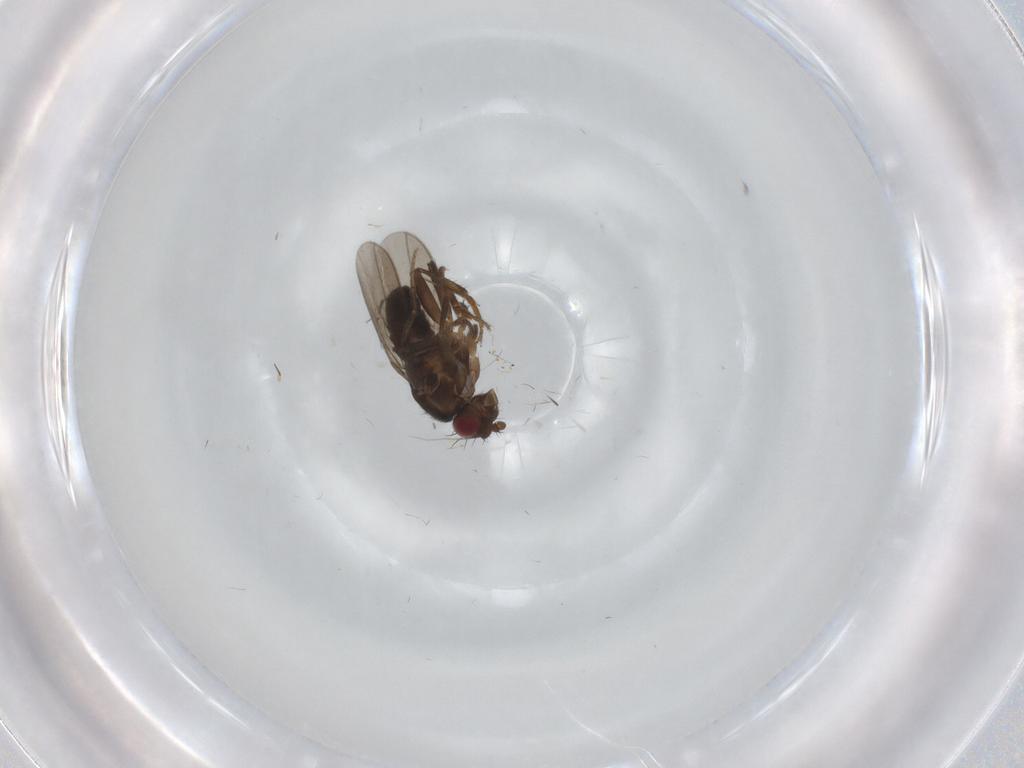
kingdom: Animalia
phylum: Arthropoda
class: Insecta
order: Diptera
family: Sphaeroceridae
